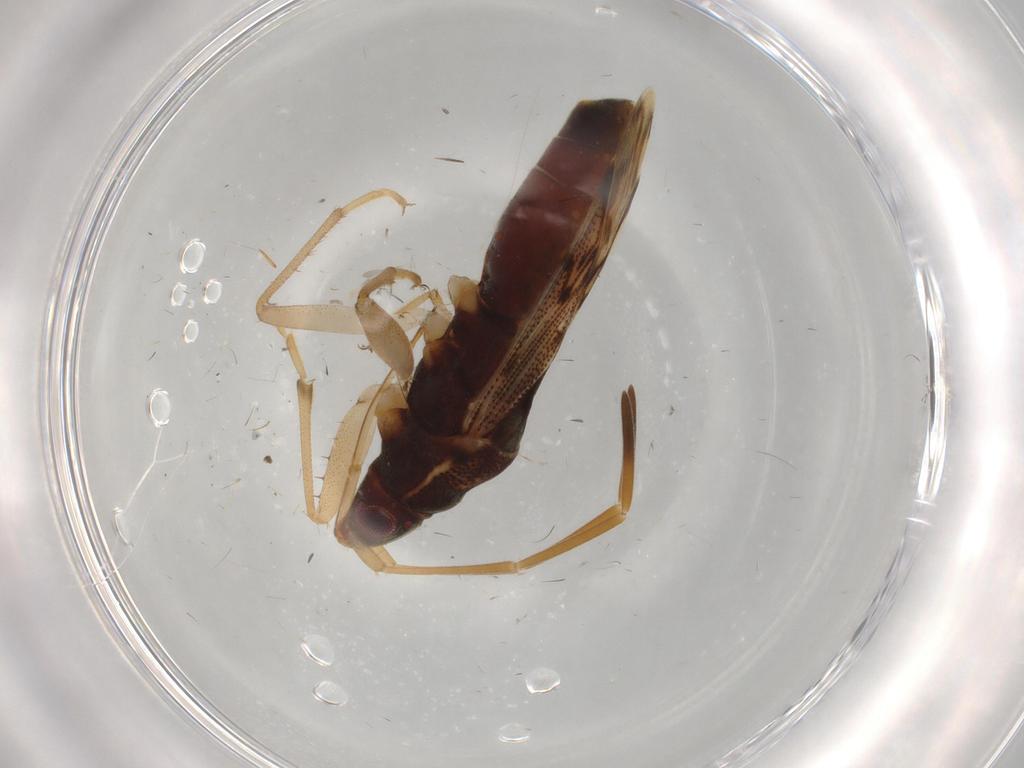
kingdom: Animalia
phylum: Arthropoda
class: Insecta
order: Hemiptera
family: Rhyparochromidae
